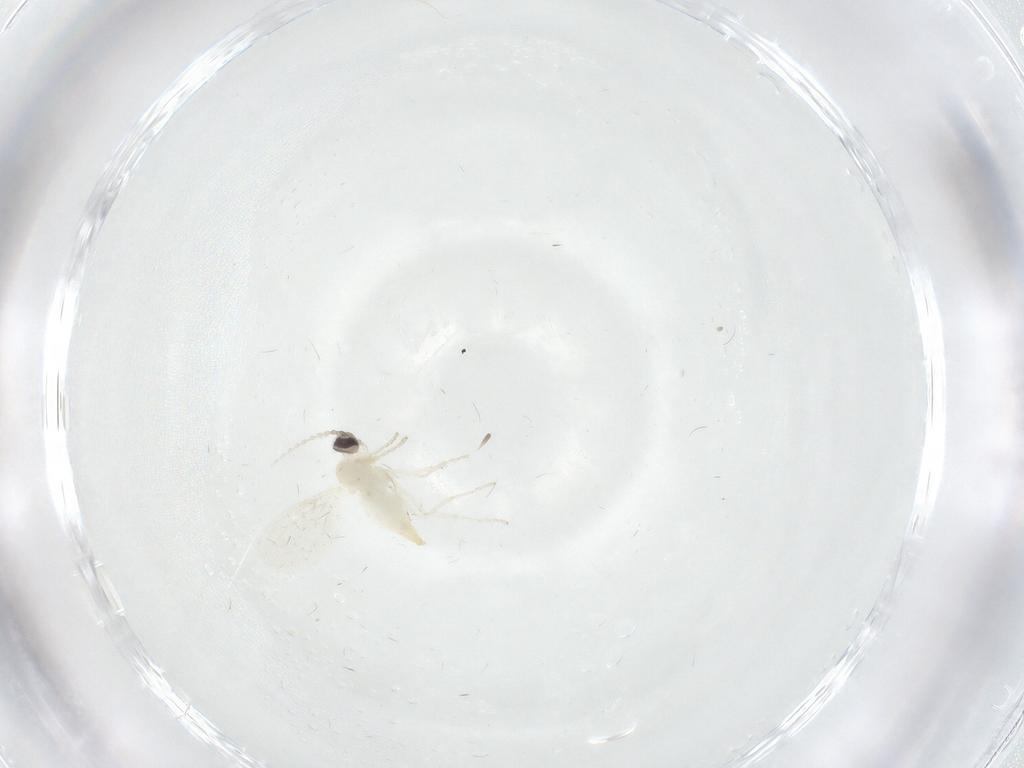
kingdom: Animalia
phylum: Arthropoda
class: Insecta
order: Diptera
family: Cecidomyiidae
